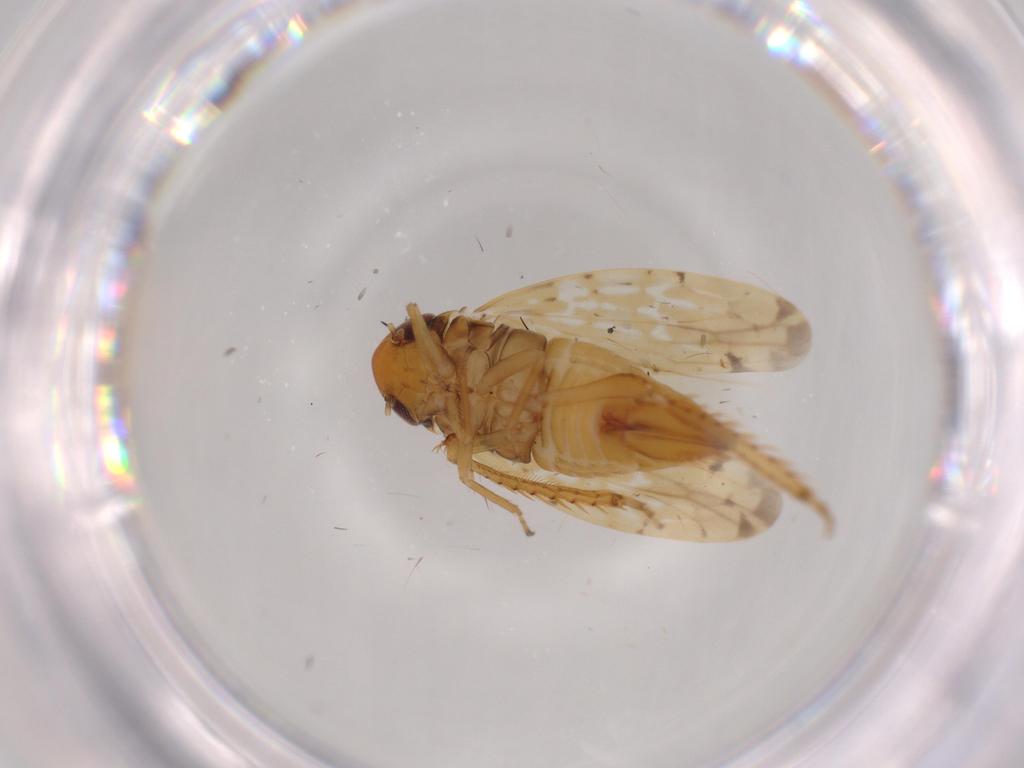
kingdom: Animalia
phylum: Arthropoda
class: Insecta
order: Hemiptera
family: Cicadellidae
